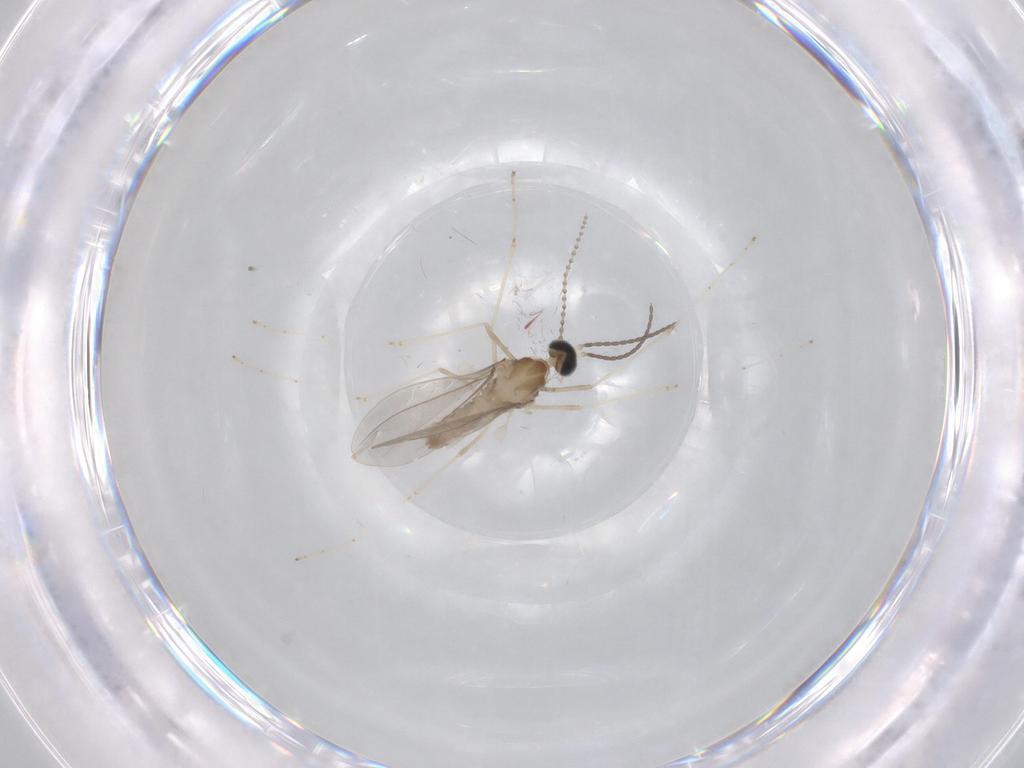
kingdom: Animalia
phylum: Arthropoda
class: Insecta
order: Diptera
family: Cecidomyiidae
